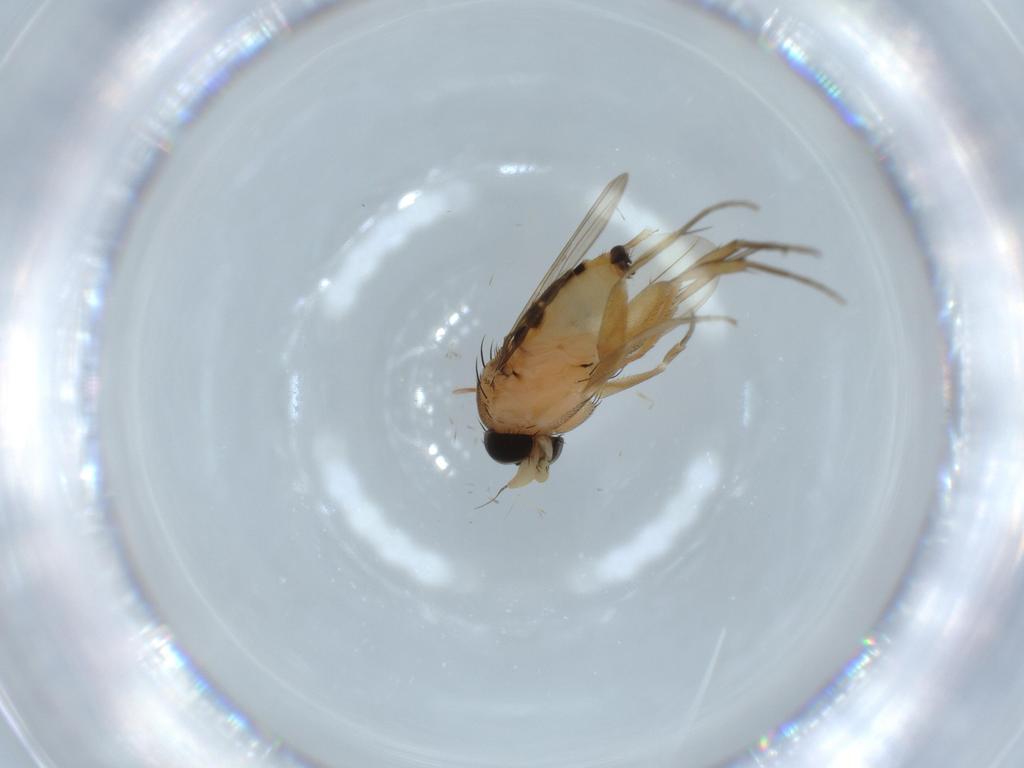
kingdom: Animalia
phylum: Arthropoda
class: Insecta
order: Diptera
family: Phoridae
